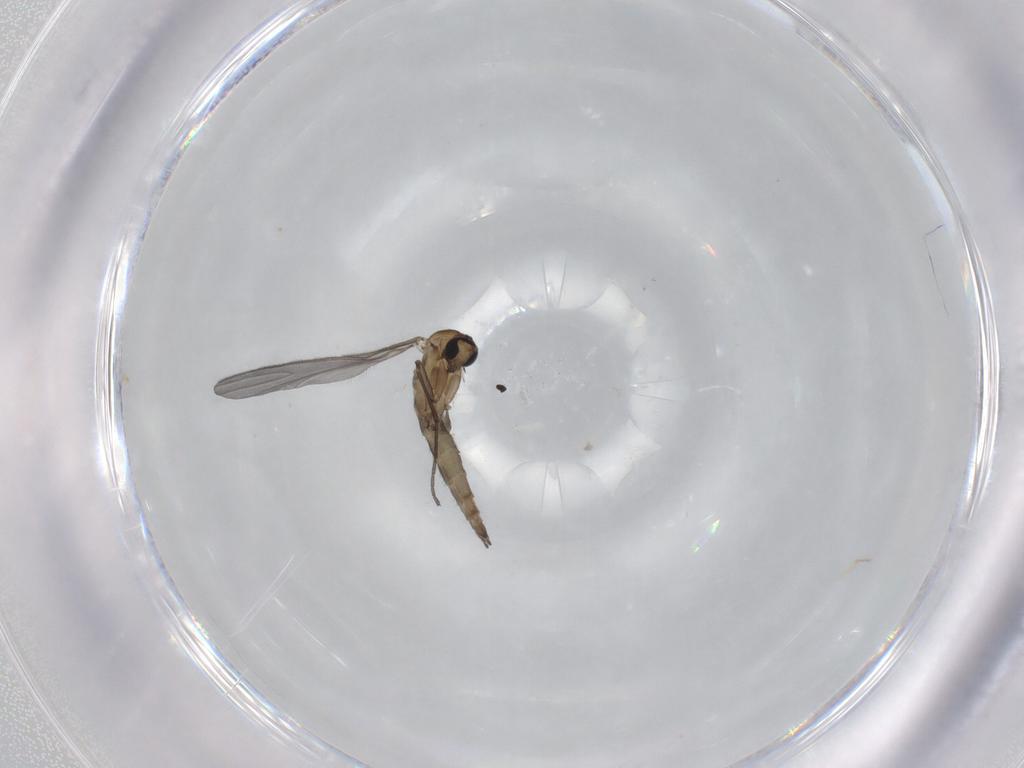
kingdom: Animalia
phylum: Arthropoda
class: Insecta
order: Diptera
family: Sciaridae
